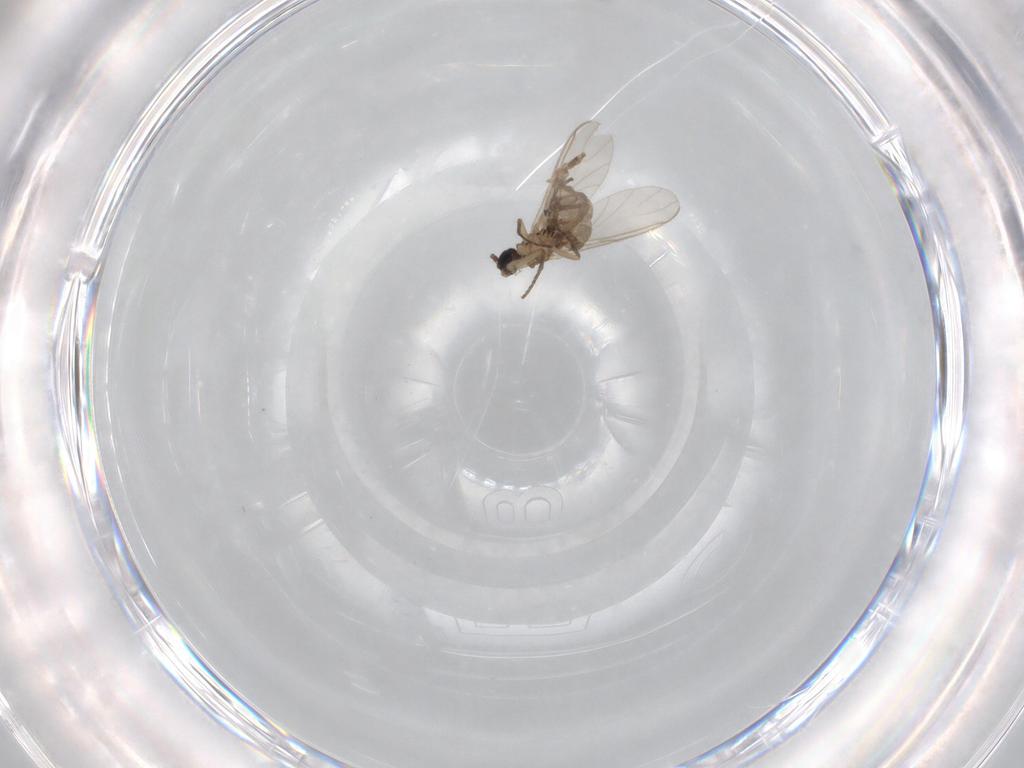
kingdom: Animalia
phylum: Arthropoda
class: Insecta
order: Diptera
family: Sciaridae
